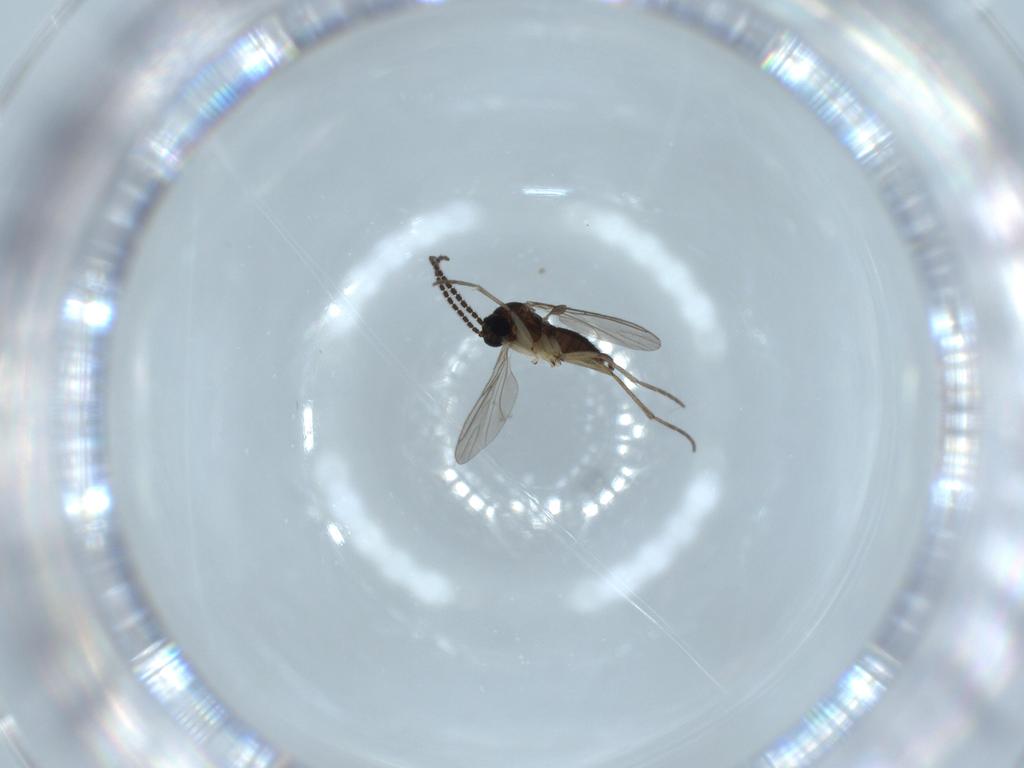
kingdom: Animalia
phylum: Arthropoda
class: Insecta
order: Diptera
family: Sciaridae
